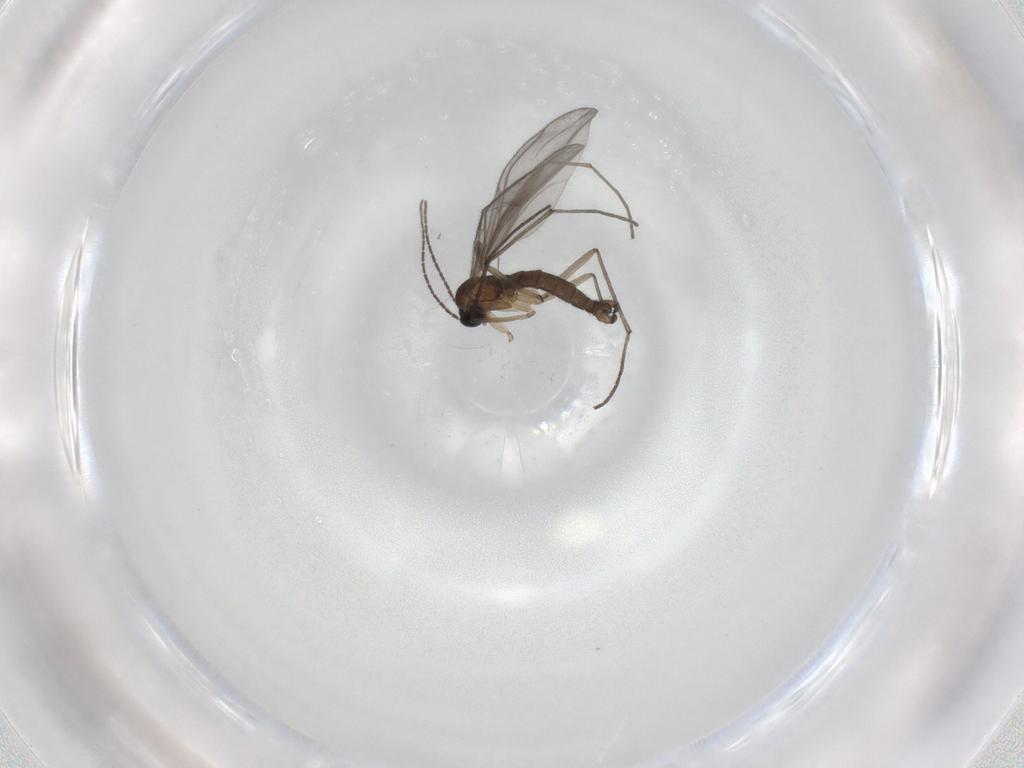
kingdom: Animalia
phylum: Arthropoda
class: Insecta
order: Diptera
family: Sciaridae
